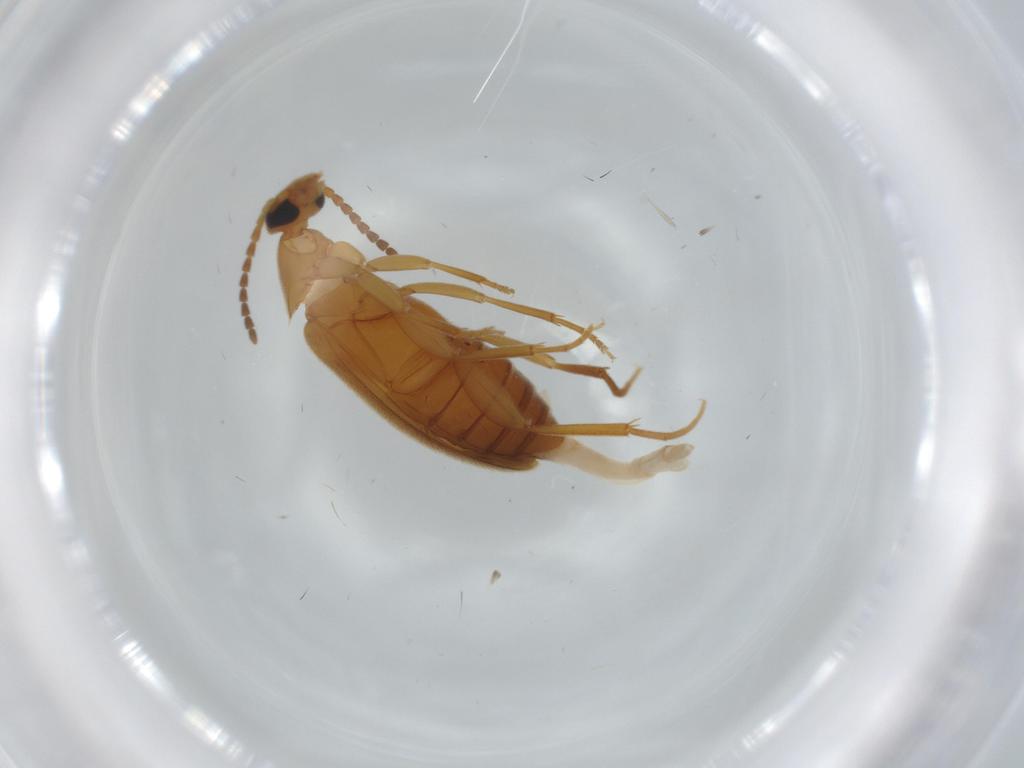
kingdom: Animalia
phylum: Arthropoda
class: Insecta
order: Coleoptera
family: Scraptiidae
